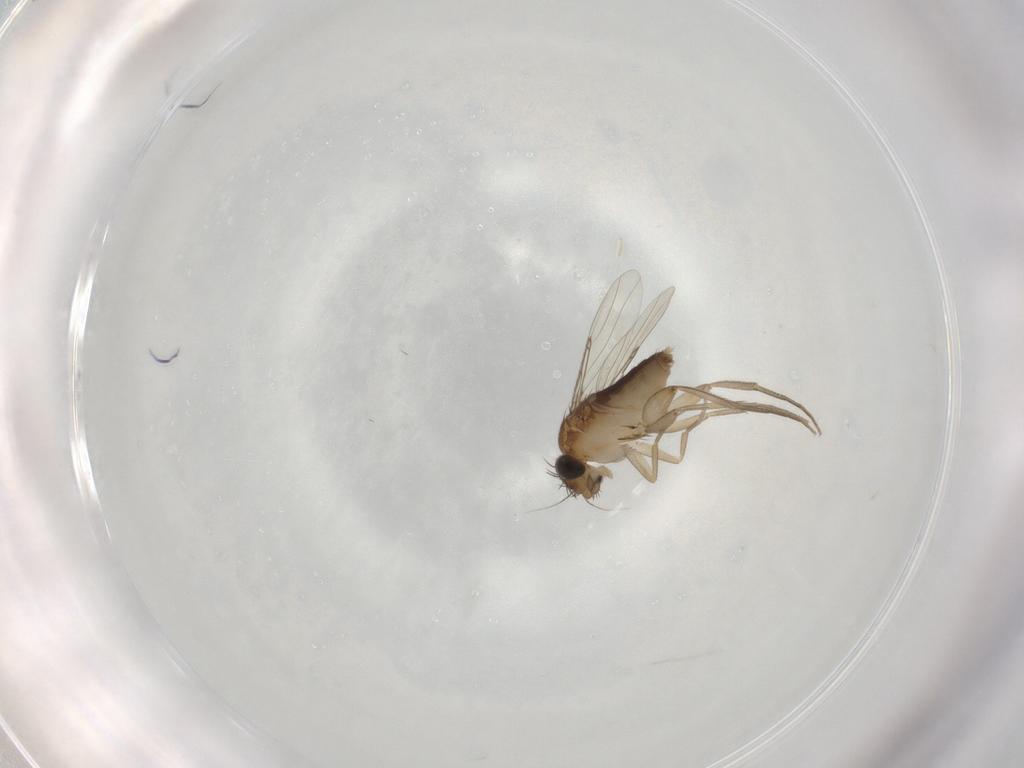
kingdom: Animalia
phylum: Arthropoda
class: Insecta
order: Diptera
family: Phoridae
